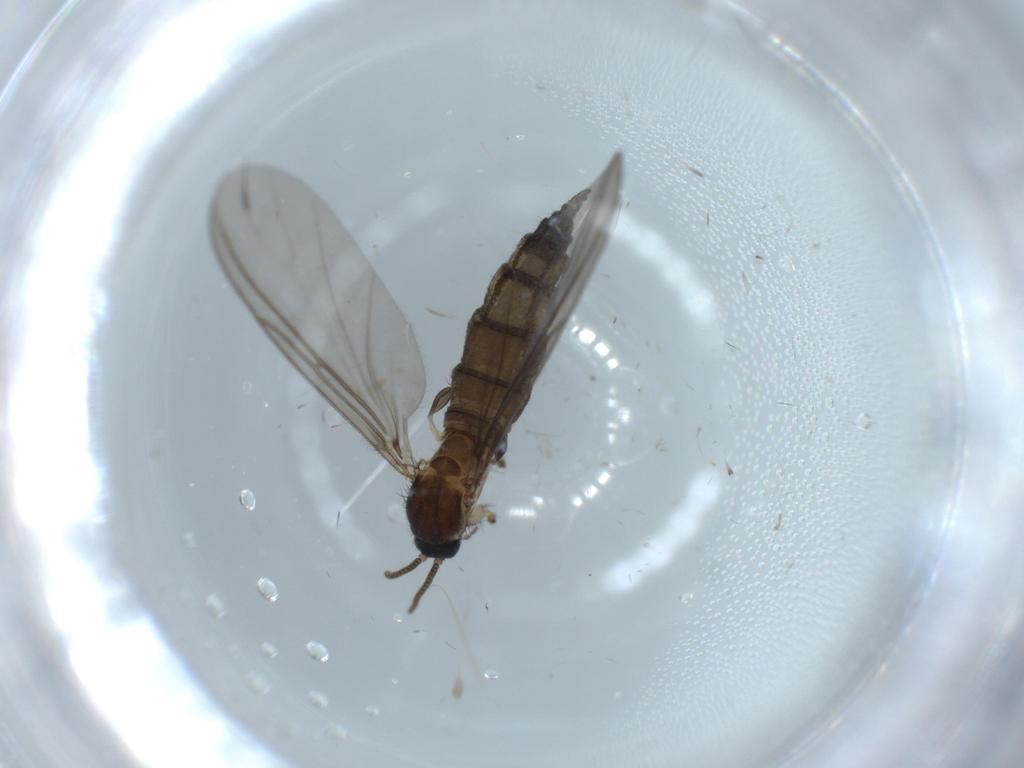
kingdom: Animalia
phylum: Arthropoda
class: Insecta
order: Diptera
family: Sciaridae
